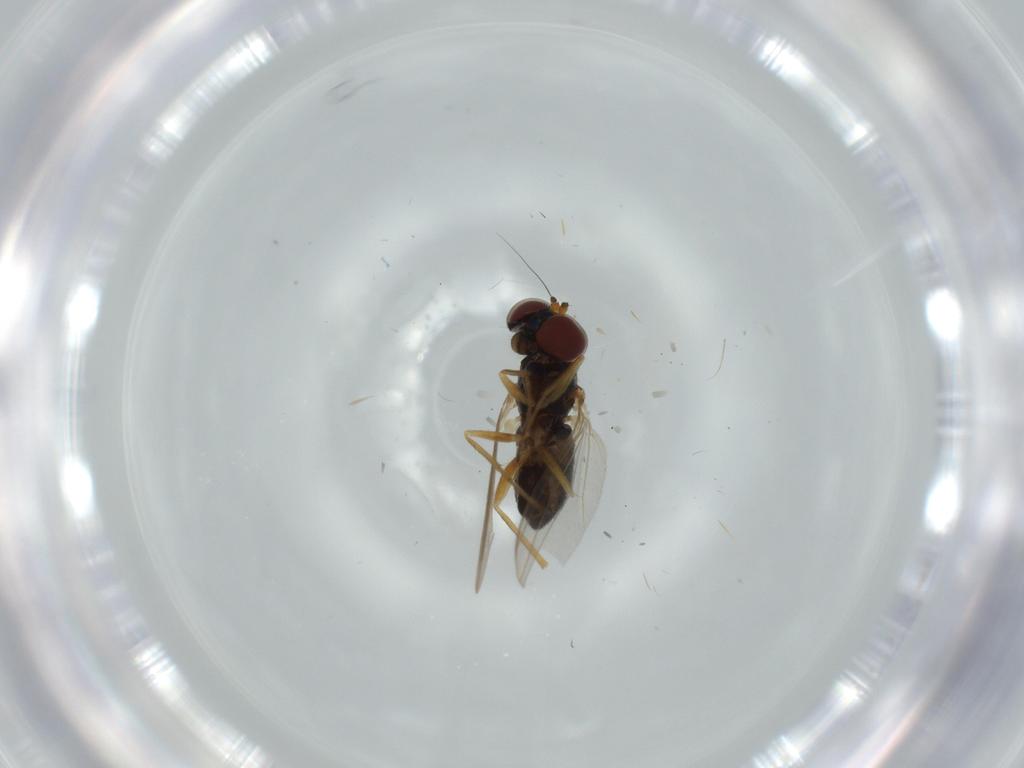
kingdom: Animalia
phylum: Arthropoda
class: Insecta
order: Diptera
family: Dolichopodidae
